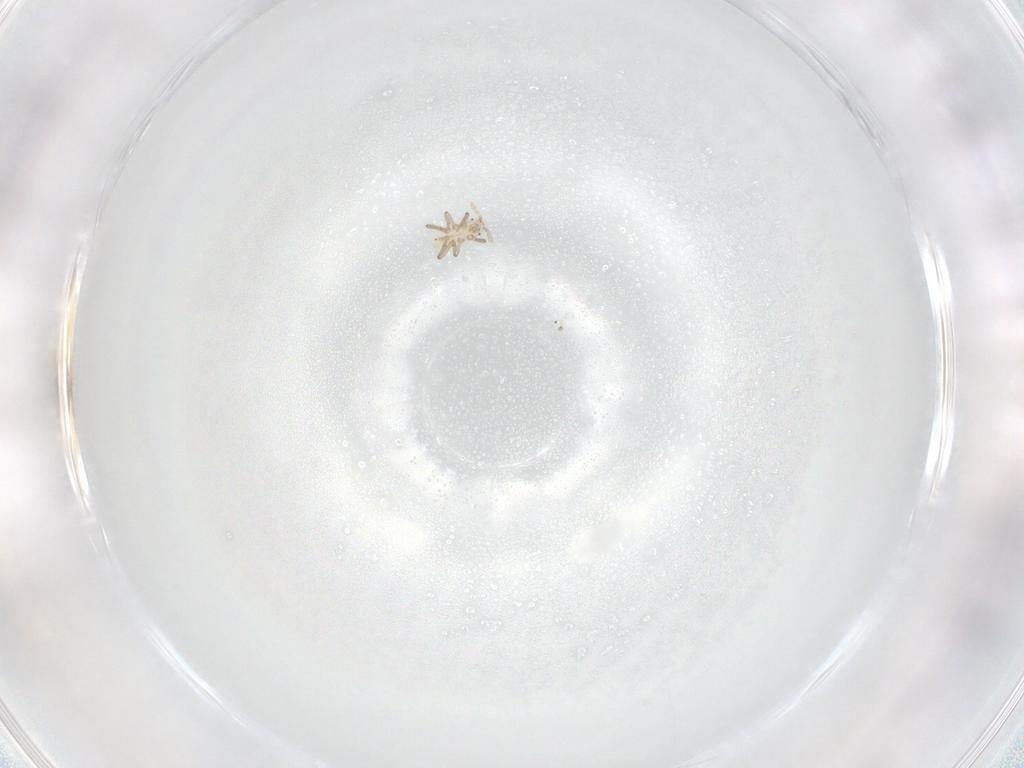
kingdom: Animalia
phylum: Arthropoda
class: Insecta
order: Hemiptera
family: Aphididae
